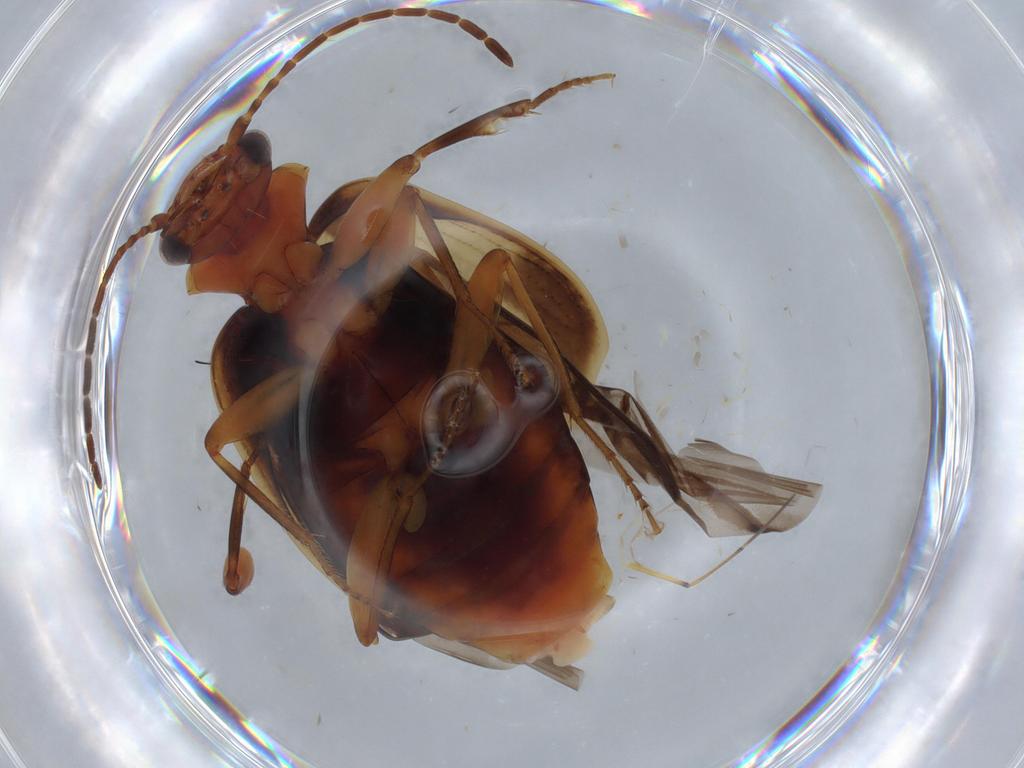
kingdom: Animalia
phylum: Arthropoda
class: Insecta
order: Coleoptera
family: Carabidae
